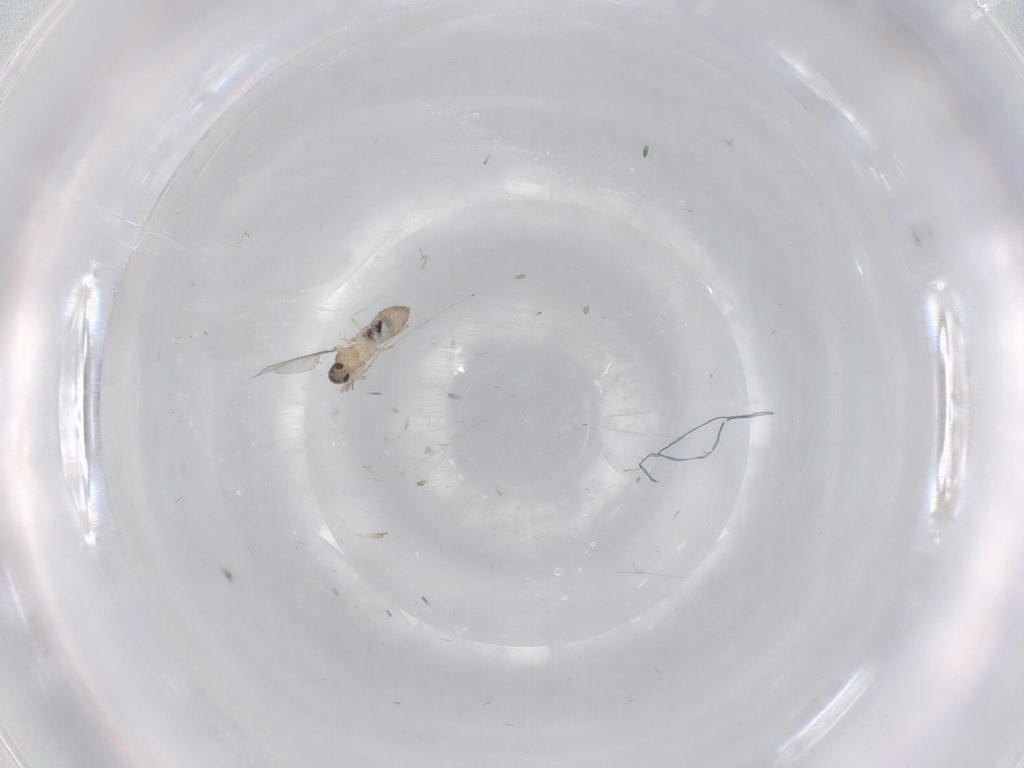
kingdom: Animalia
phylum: Arthropoda
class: Insecta
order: Diptera
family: Cecidomyiidae
